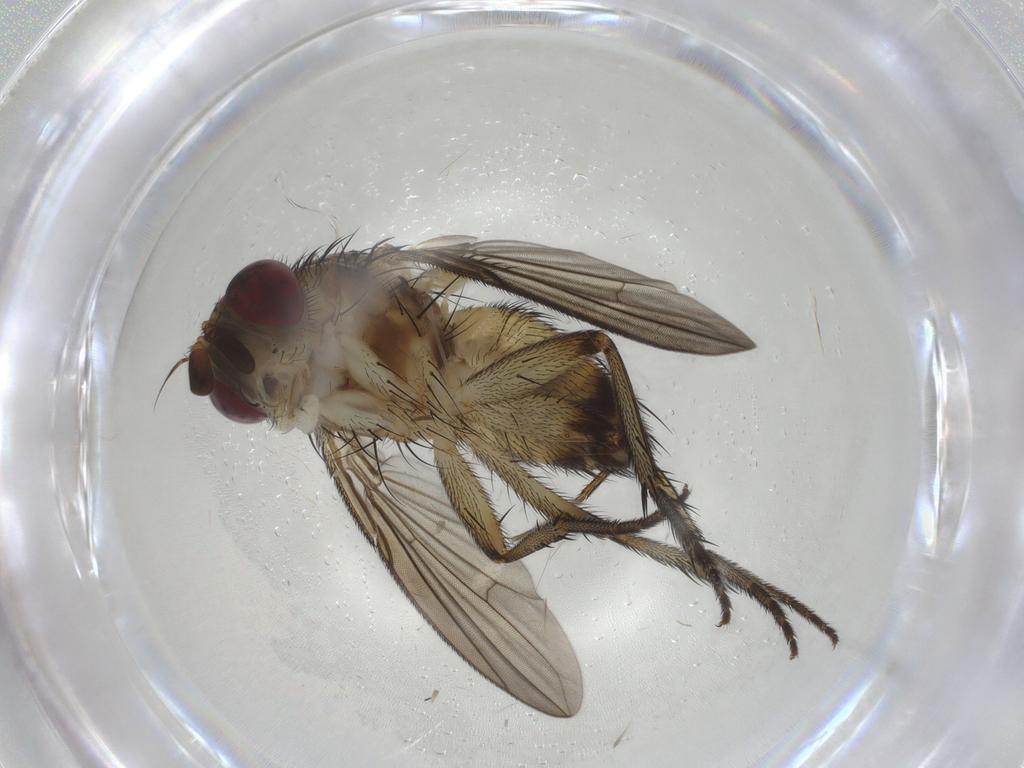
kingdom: Animalia
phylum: Arthropoda
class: Insecta
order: Diptera
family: Tachinidae
